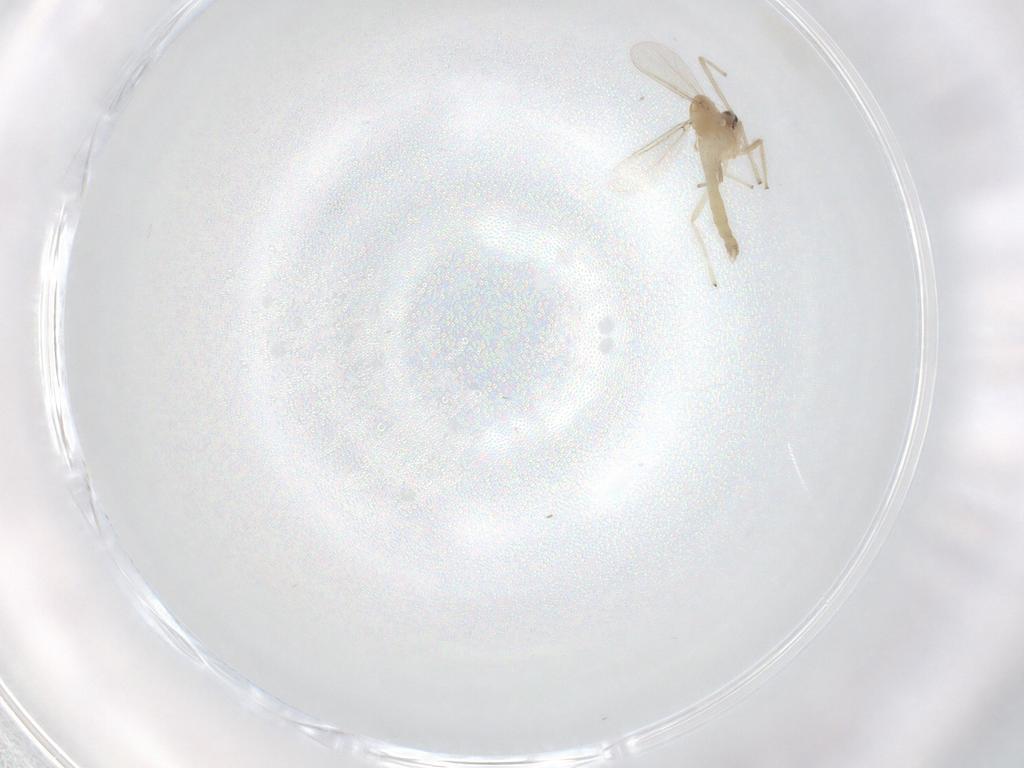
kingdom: Animalia
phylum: Arthropoda
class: Insecta
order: Diptera
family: Chironomidae
